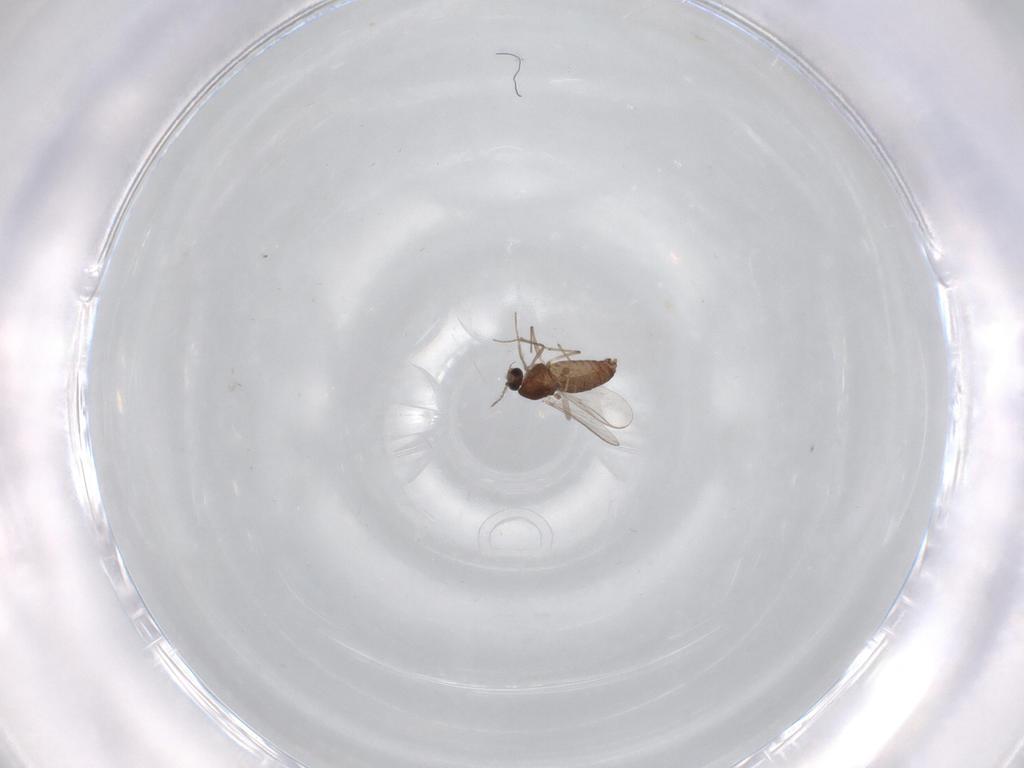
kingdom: Animalia
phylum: Arthropoda
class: Insecta
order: Diptera
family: Chironomidae
